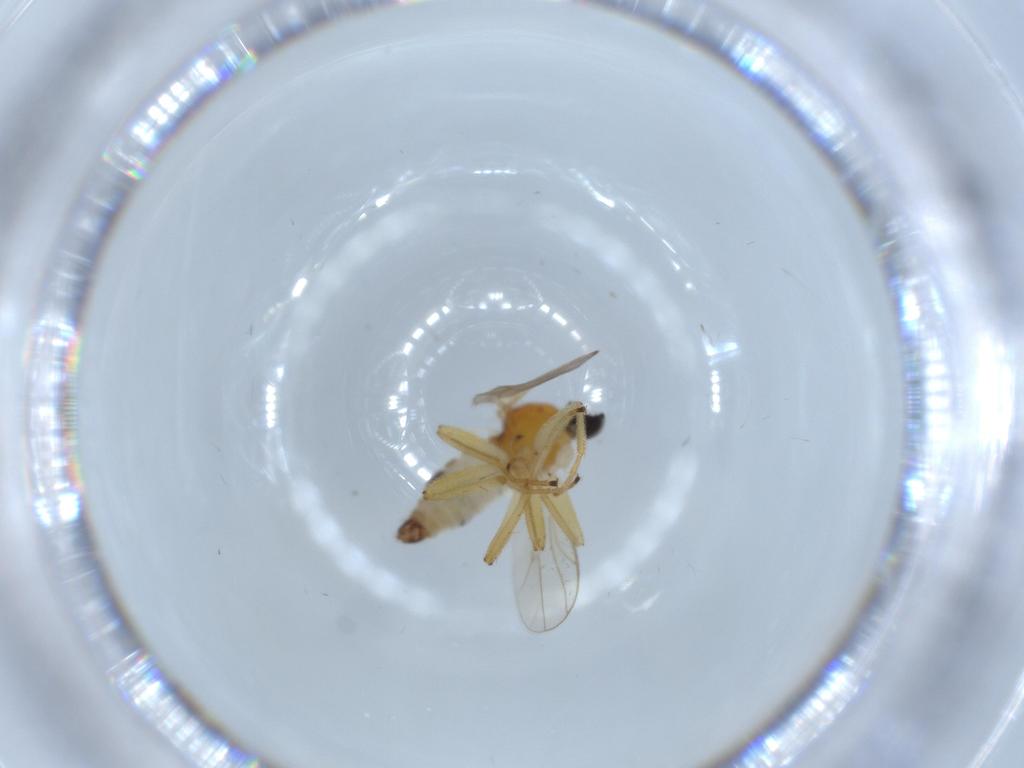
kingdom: Animalia
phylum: Arthropoda
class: Insecta
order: Diptera
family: Hybotidae
